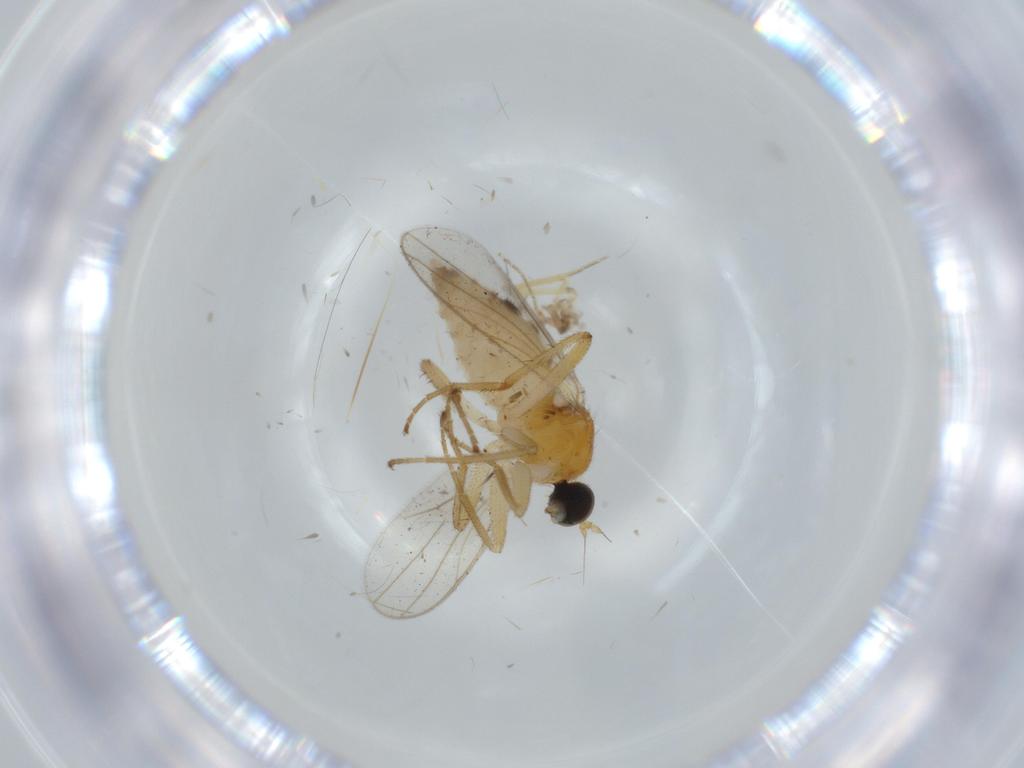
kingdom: Animalia
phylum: Arthropoda
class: Insecta
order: Diptera
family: Hybotidae
